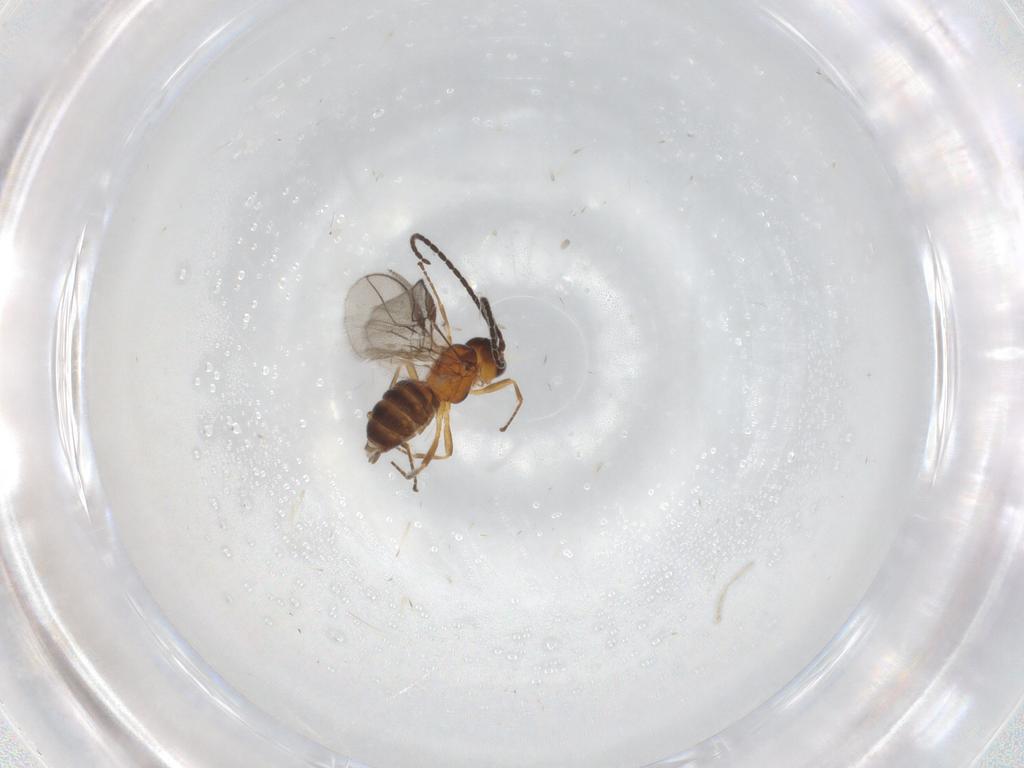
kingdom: Animalia
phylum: Arthropoda
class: Insecta
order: Hymenoptera
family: Braconidae
